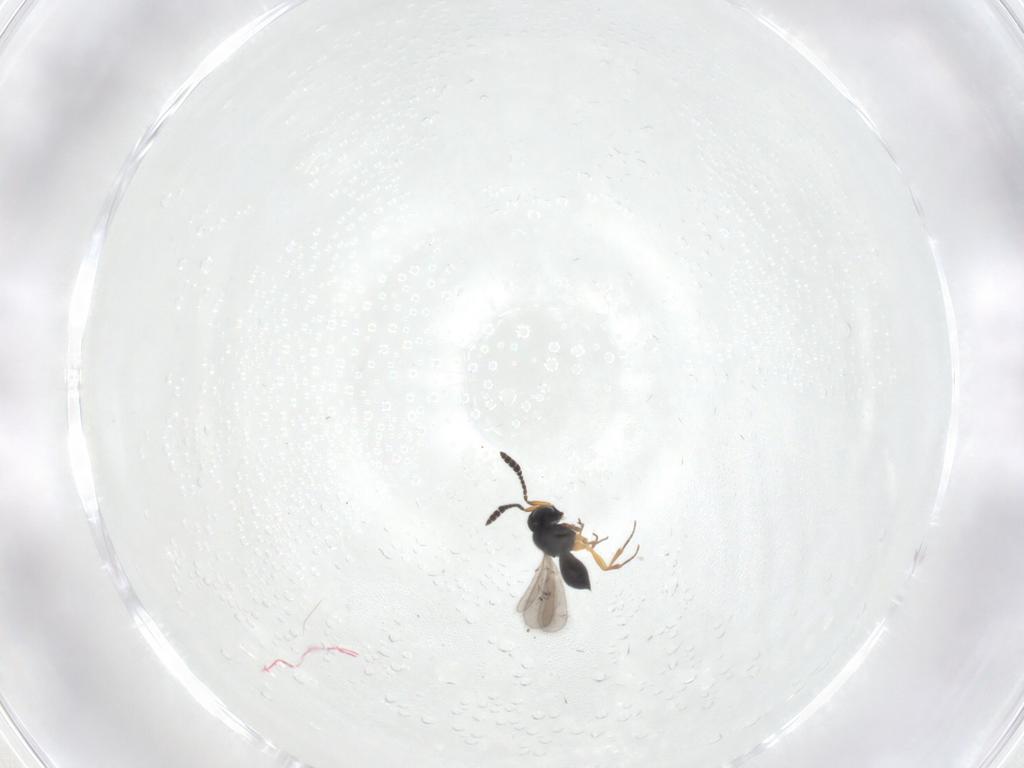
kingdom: Animalia
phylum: Arthropoda
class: Insecta
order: Hymenoptera
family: Scelionidae
